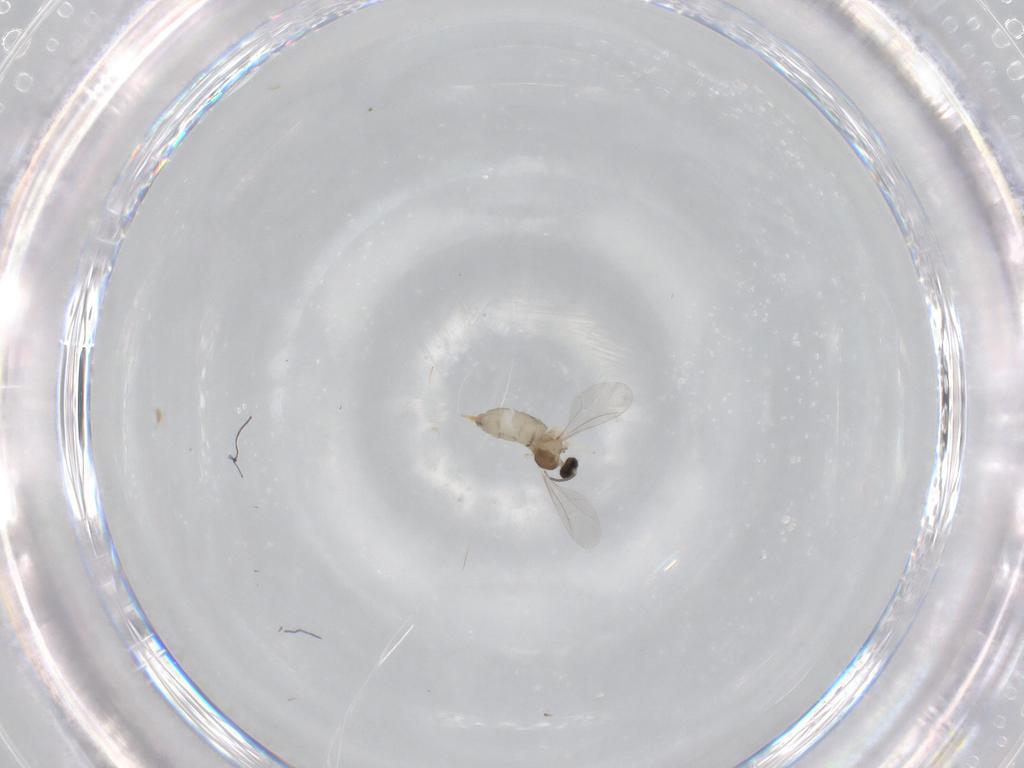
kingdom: Animalia
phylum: Arthropoda
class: Insecta
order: Diptera
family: Cecidomyiidae
